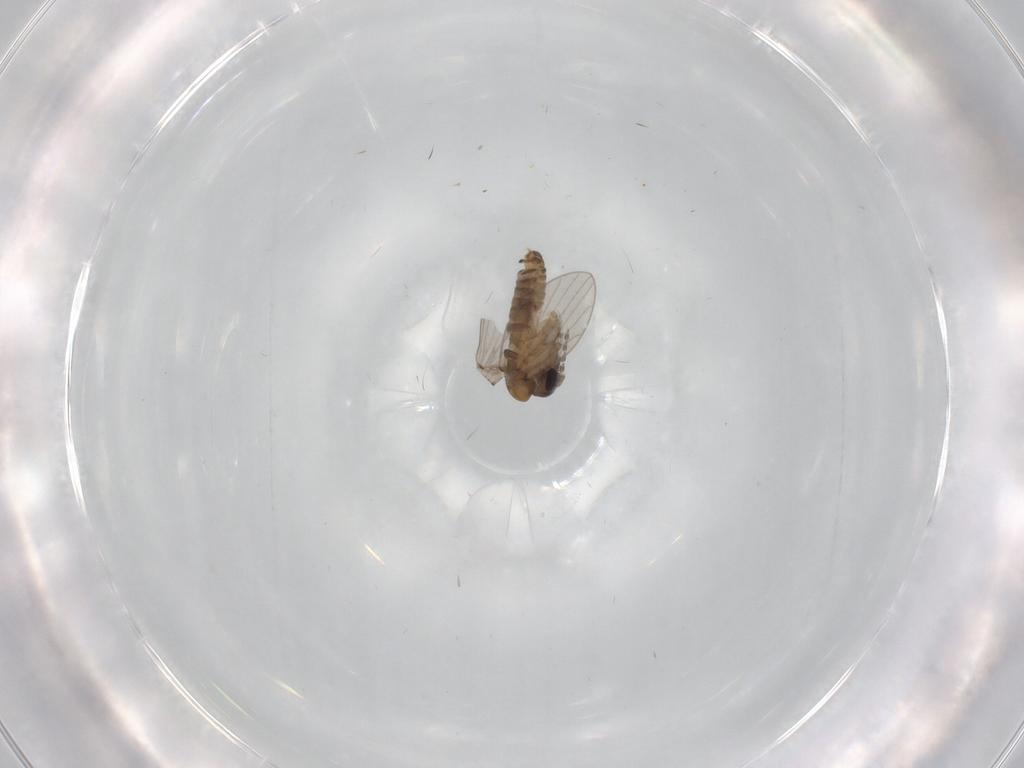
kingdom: Animalia
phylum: Arthropoda
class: Insecta
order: Diptera
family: Psychodidae
